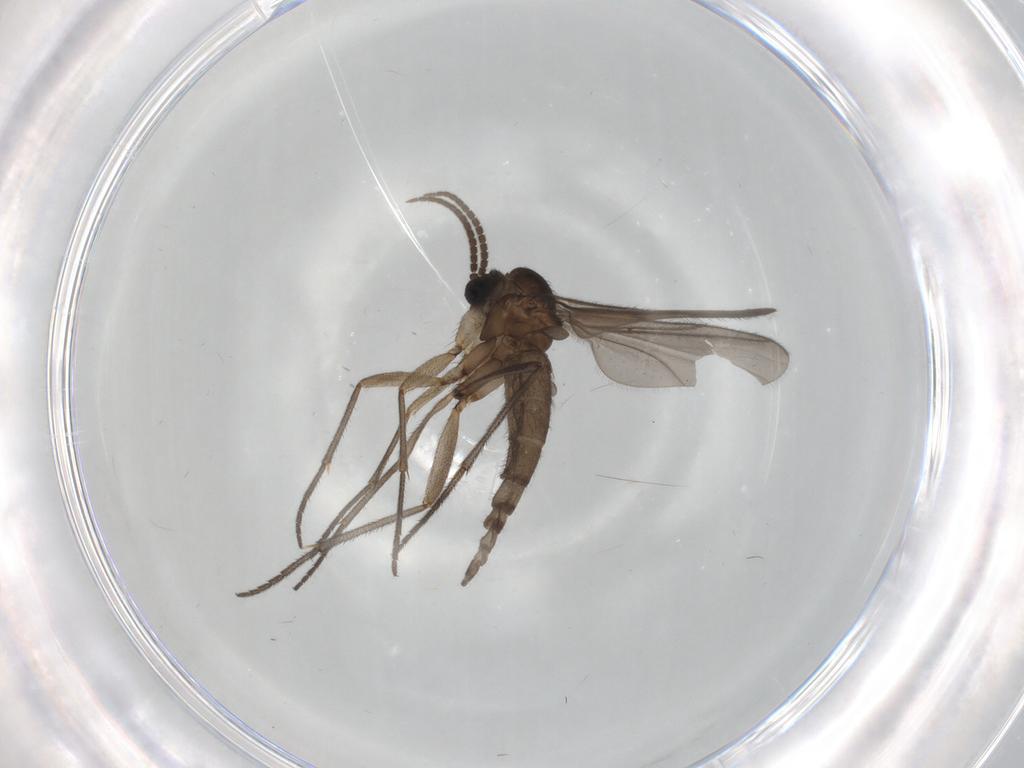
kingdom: Animalia
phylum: Arthropoda
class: Insecta
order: Diptera
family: Sciaridae
